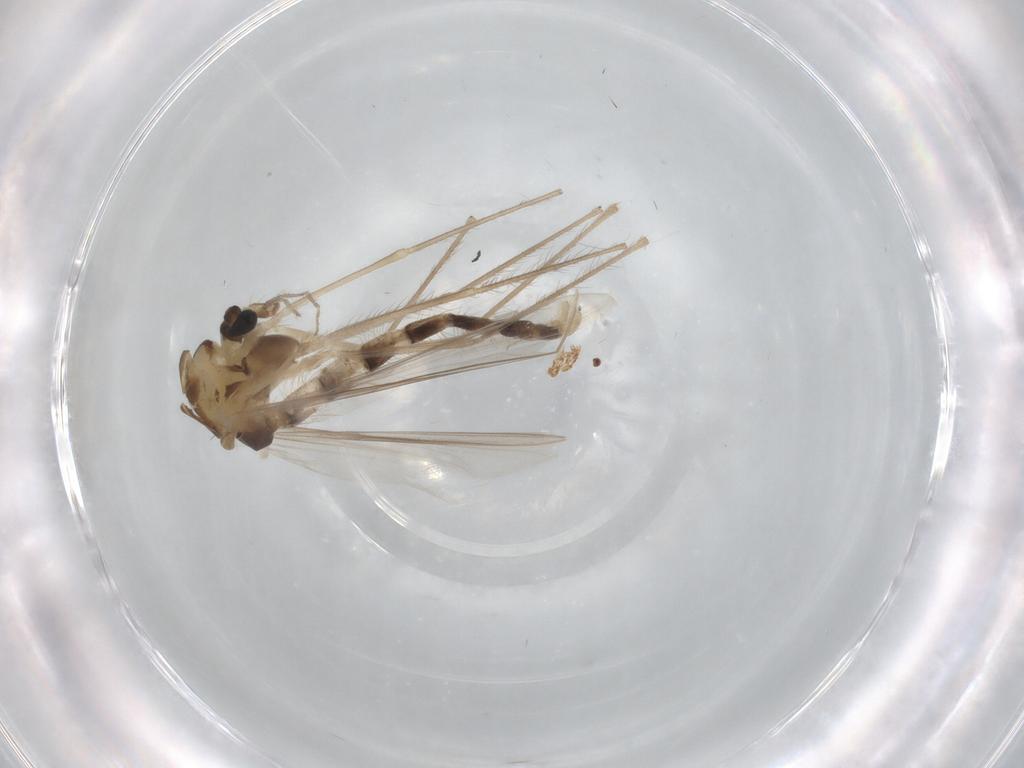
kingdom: Animalia
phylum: Arthropoda
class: Insecta
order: Diptera
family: Chironomidae
